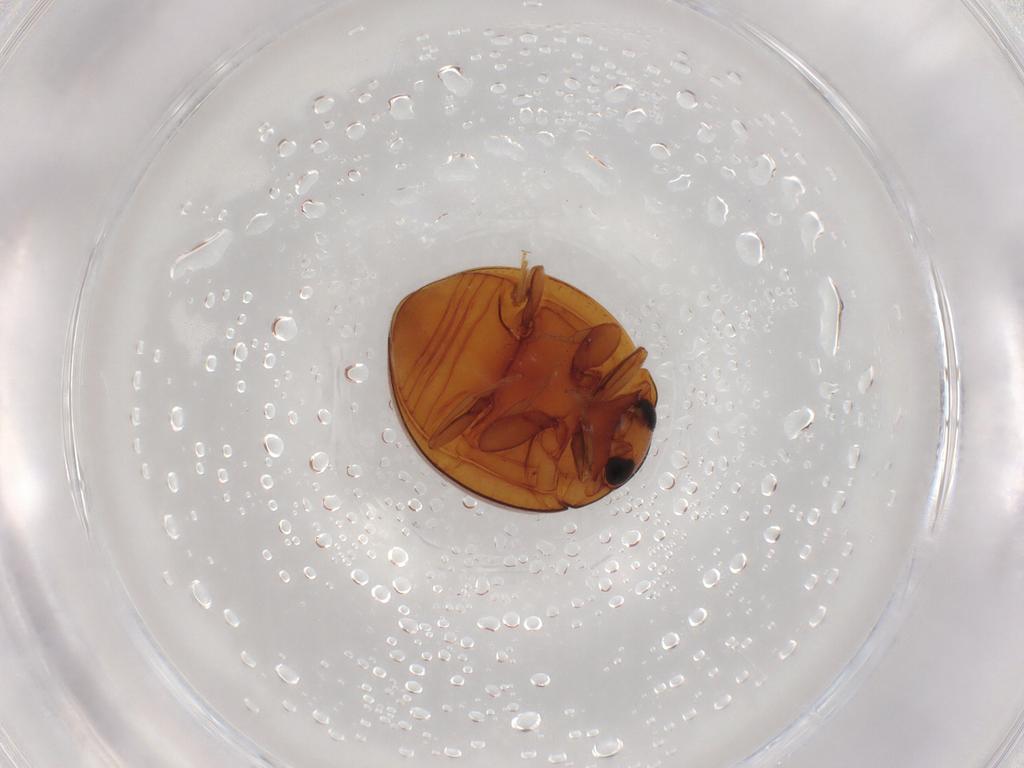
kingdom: Animalia
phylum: Arthropoda
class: Insecta
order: Coleoptera
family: Coccinellidae
